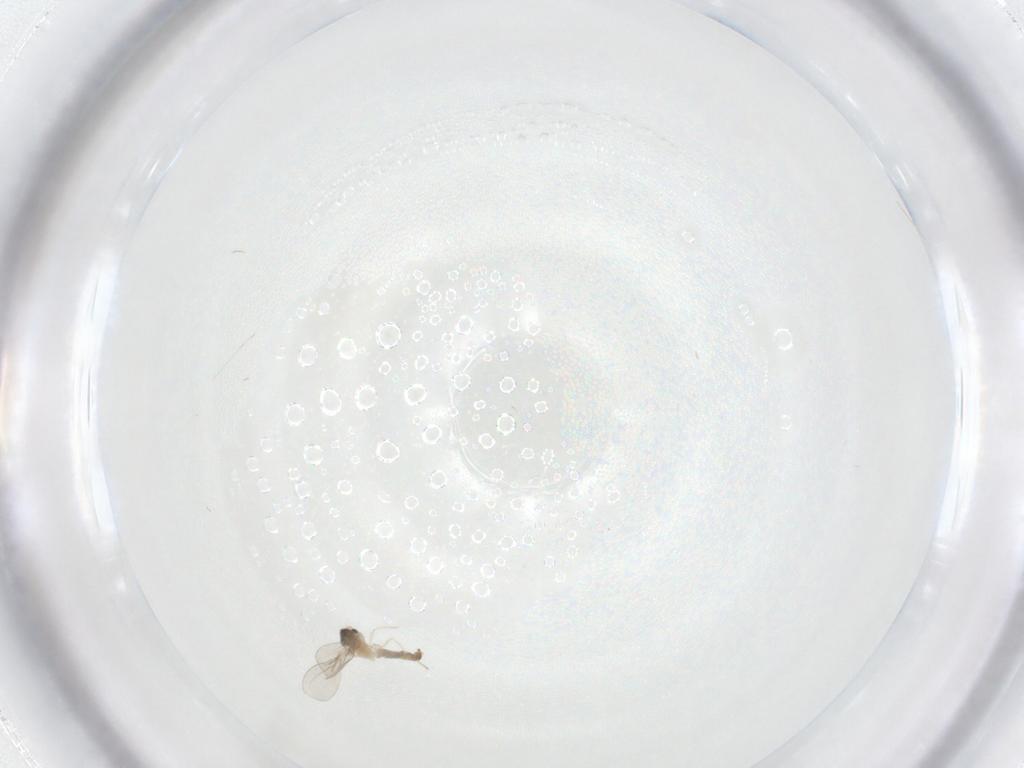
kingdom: Animalia
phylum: Arthropoda
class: Insecta
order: Diptera
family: Cecidomyiidae
